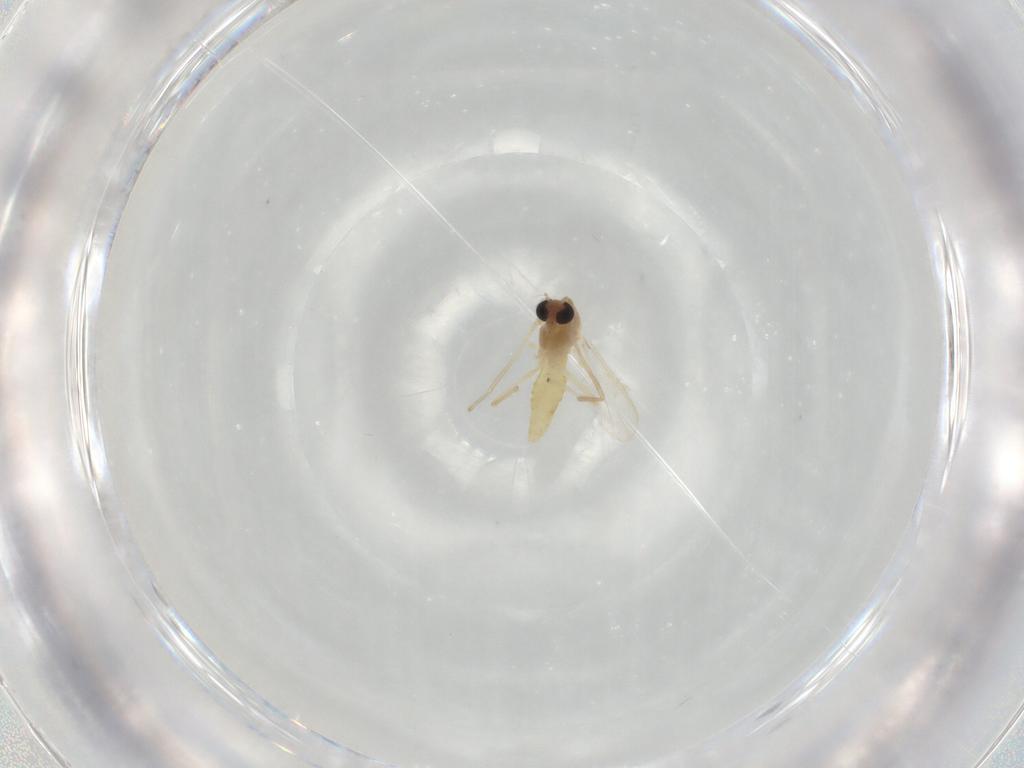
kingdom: Animalia
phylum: Arthropoda
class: Insecta
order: Diptera
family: Chironomidae
